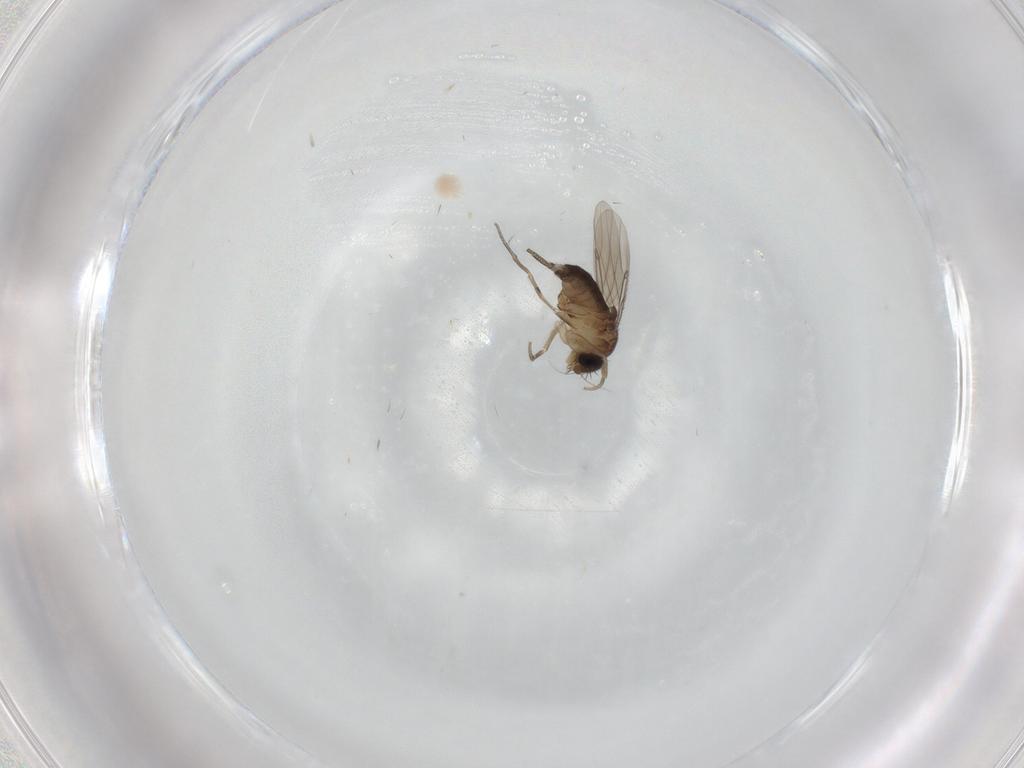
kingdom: Animalia
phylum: Arthropoda
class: Insecta
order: Diptera
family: Phoridae
